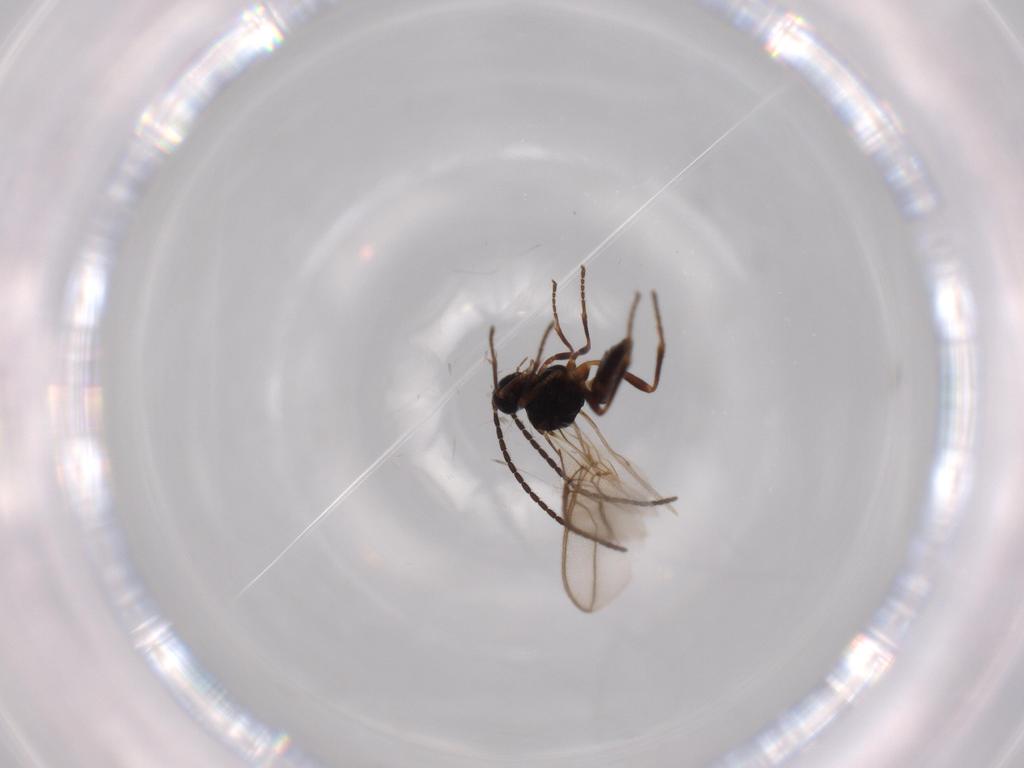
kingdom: Animalia
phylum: Arthropoda
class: Insecta
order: Hymenoptera
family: Braconidae
